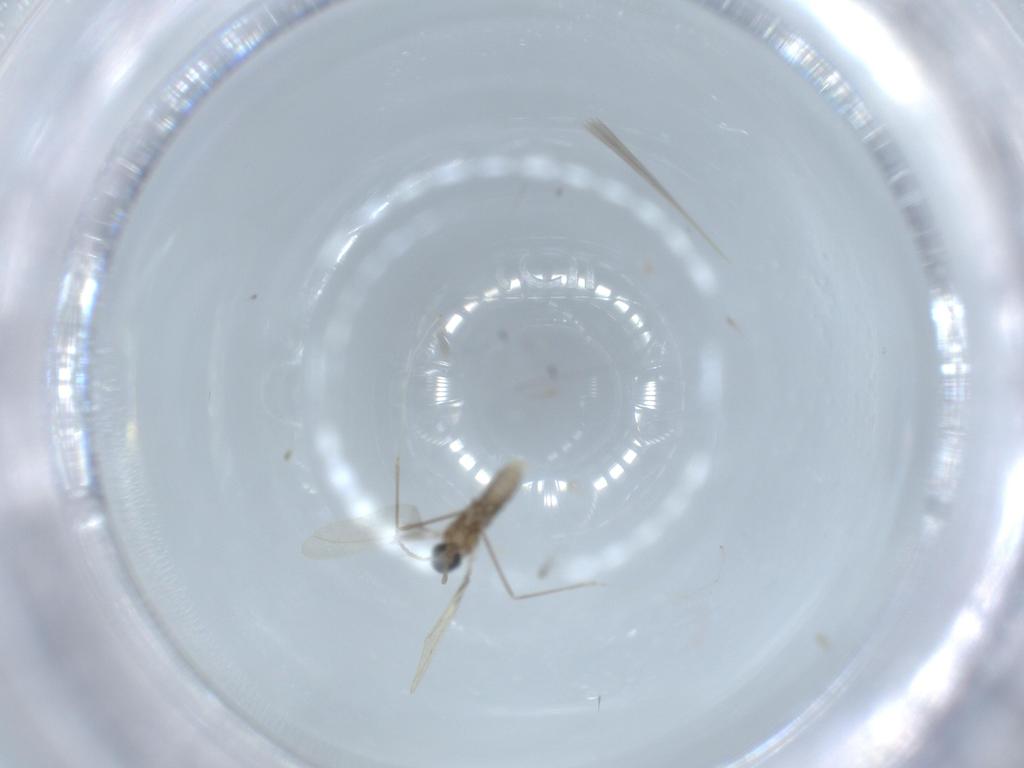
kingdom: Animalia
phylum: Arthropoda
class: Insecta
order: Diptera
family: Cecidomyiidae
